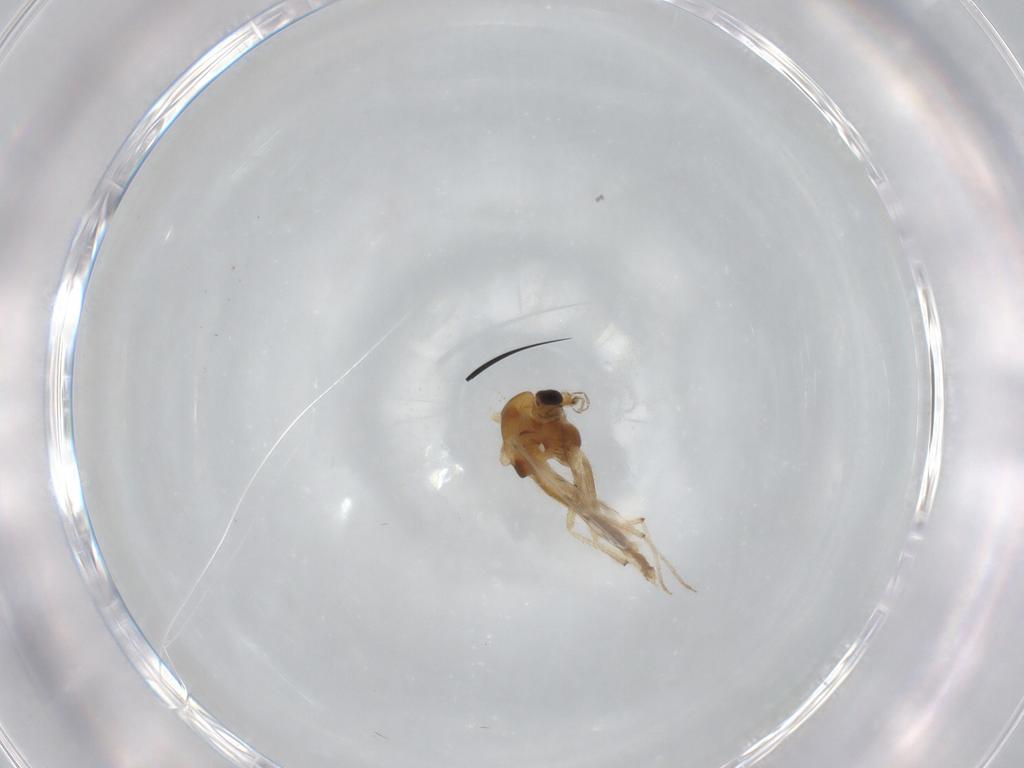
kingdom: Animalia
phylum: Arthropoda
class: Insecta
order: Diptera
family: Chironomidae
